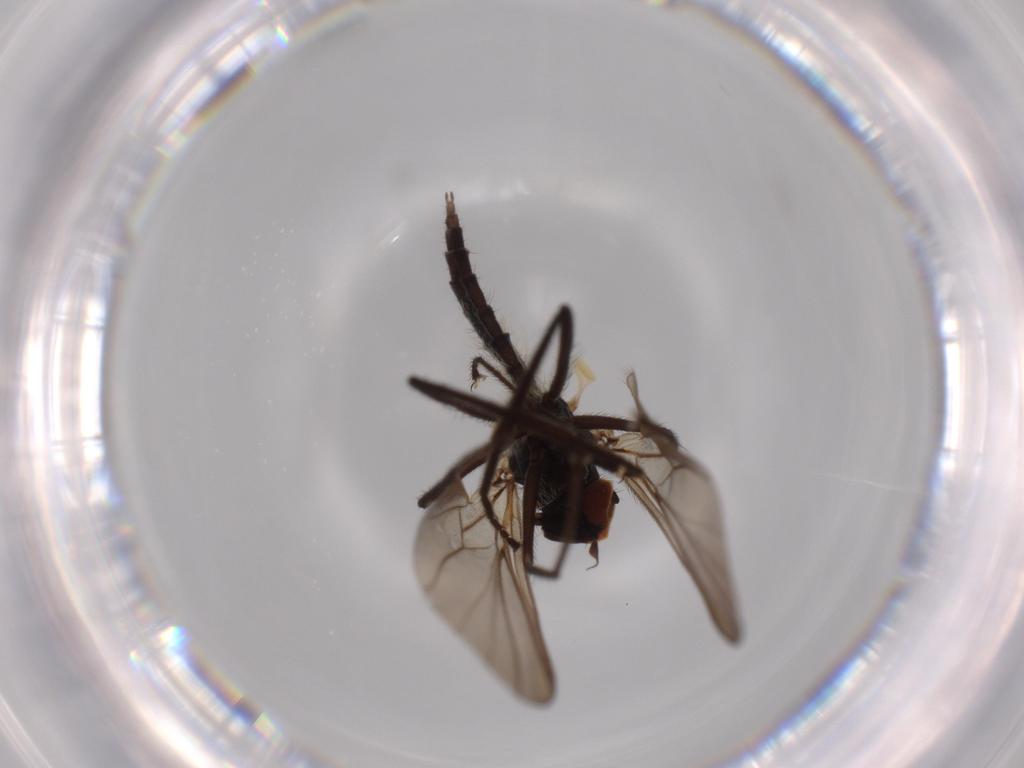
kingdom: Animalia
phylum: Arthropoda
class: Insecta
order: Diptera
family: Hybotidae
